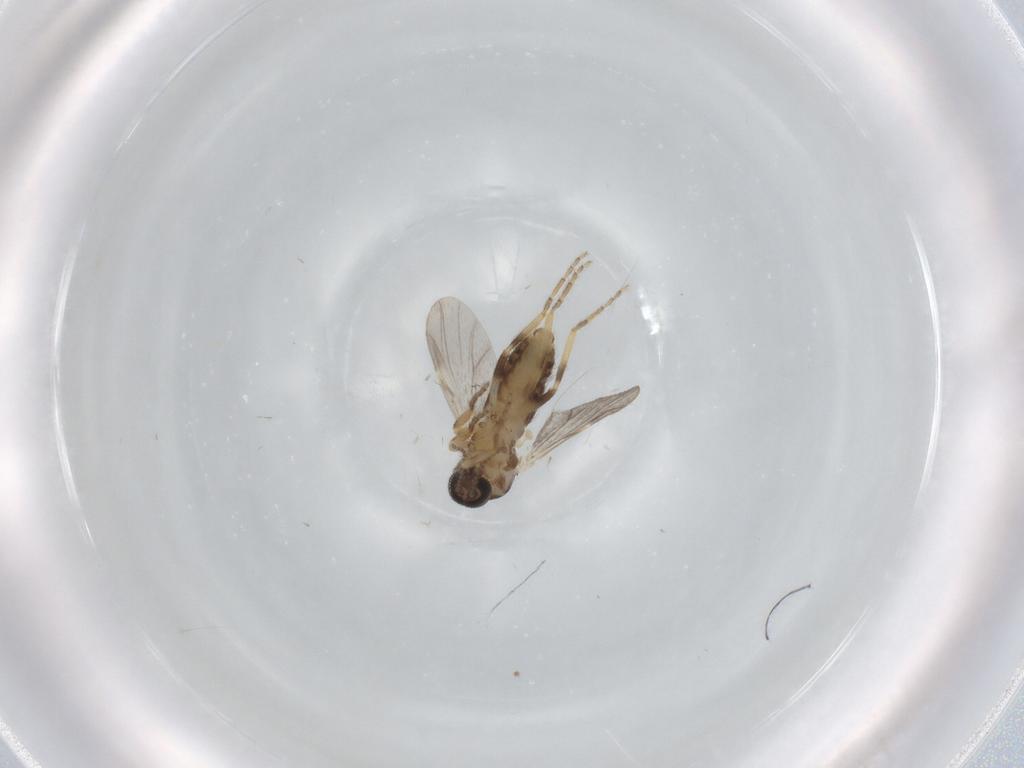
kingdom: Animalia
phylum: Arthropoda
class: Insecta
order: Diptera
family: Ceratopogonidae
